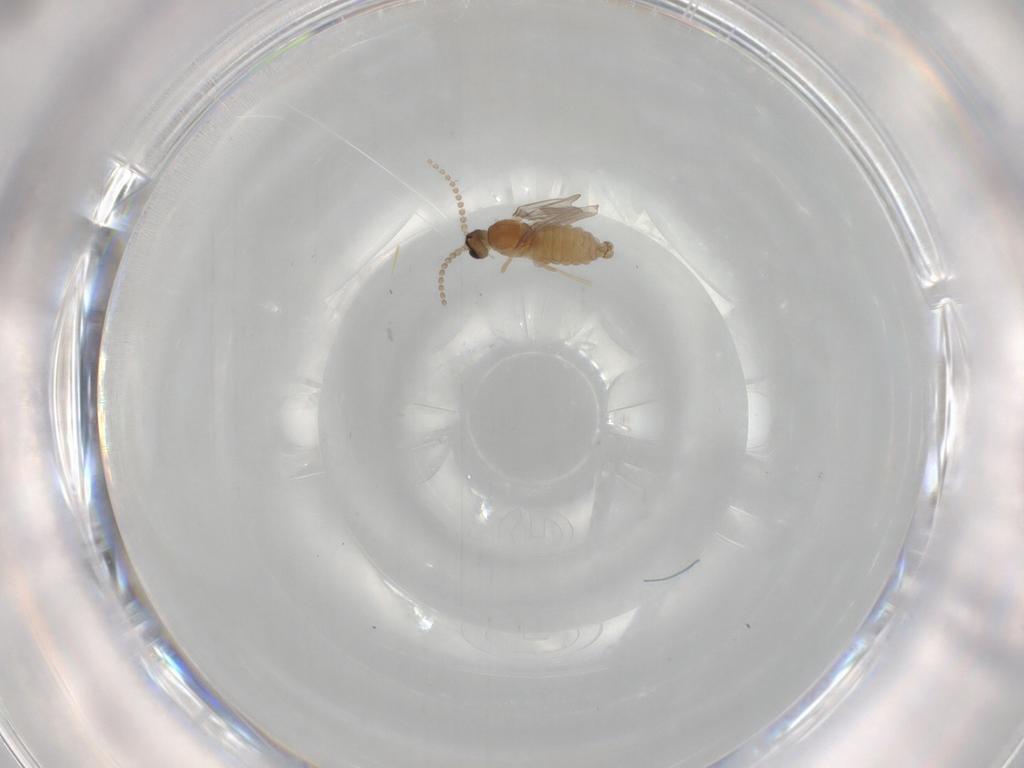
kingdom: Animalia
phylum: Arthropoda
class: Insecta
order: Diptera
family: Cecidomyiidae
